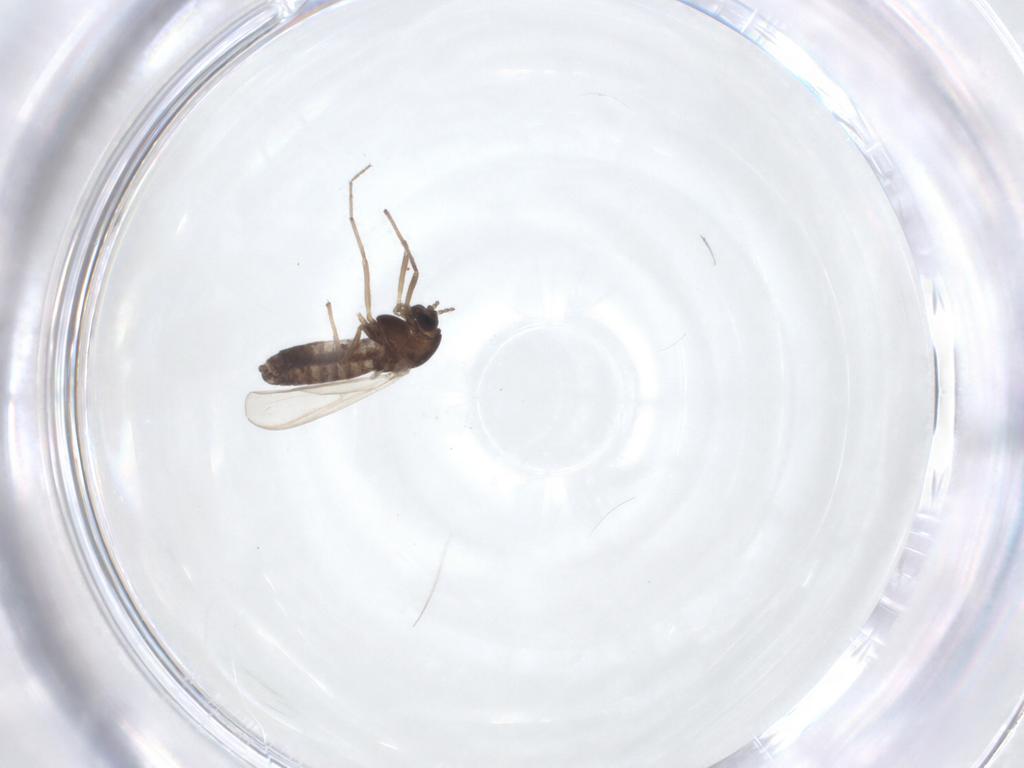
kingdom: Animalia
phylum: Arthropoda
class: Insecta
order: Diptera
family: Chironomidae
